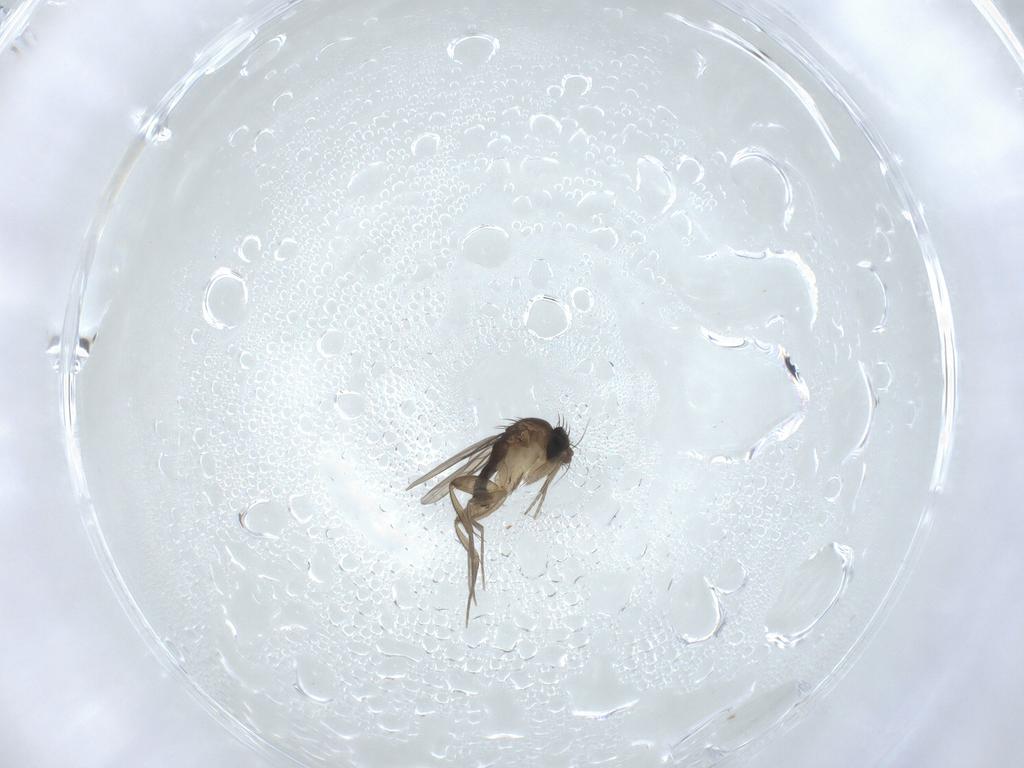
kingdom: Animalia
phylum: Arthropoda
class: Insecta
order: Diptera
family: Phoridae
